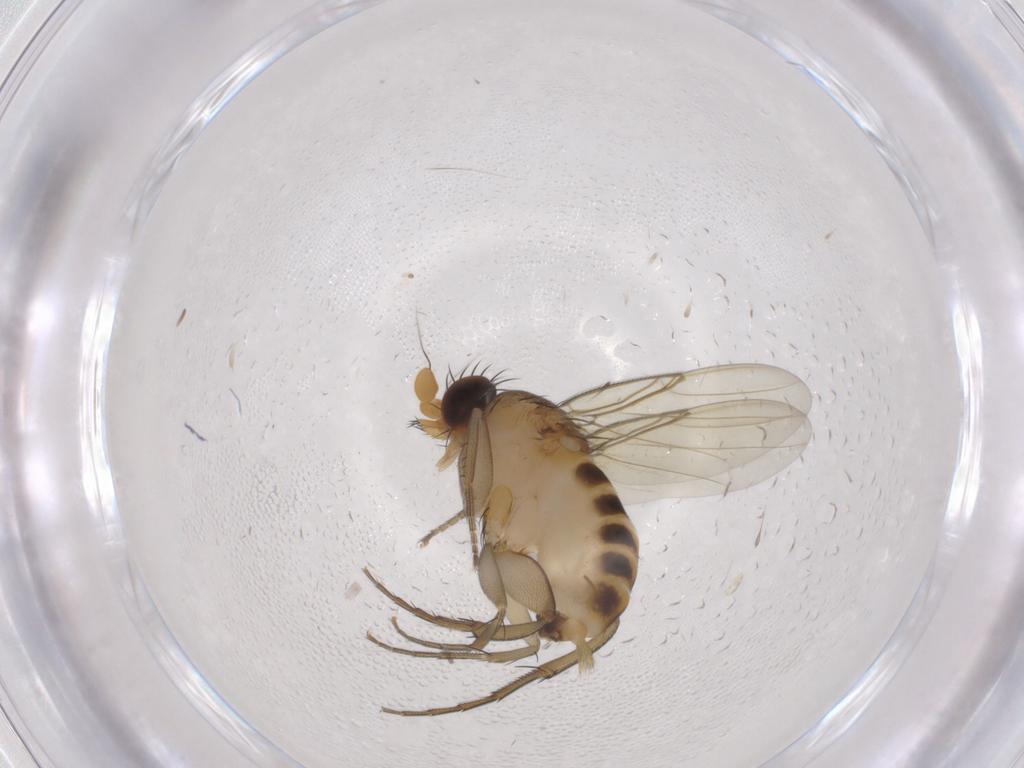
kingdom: Animalia
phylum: Arthropoda
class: Insecta
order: Diptera
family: Phoridae
